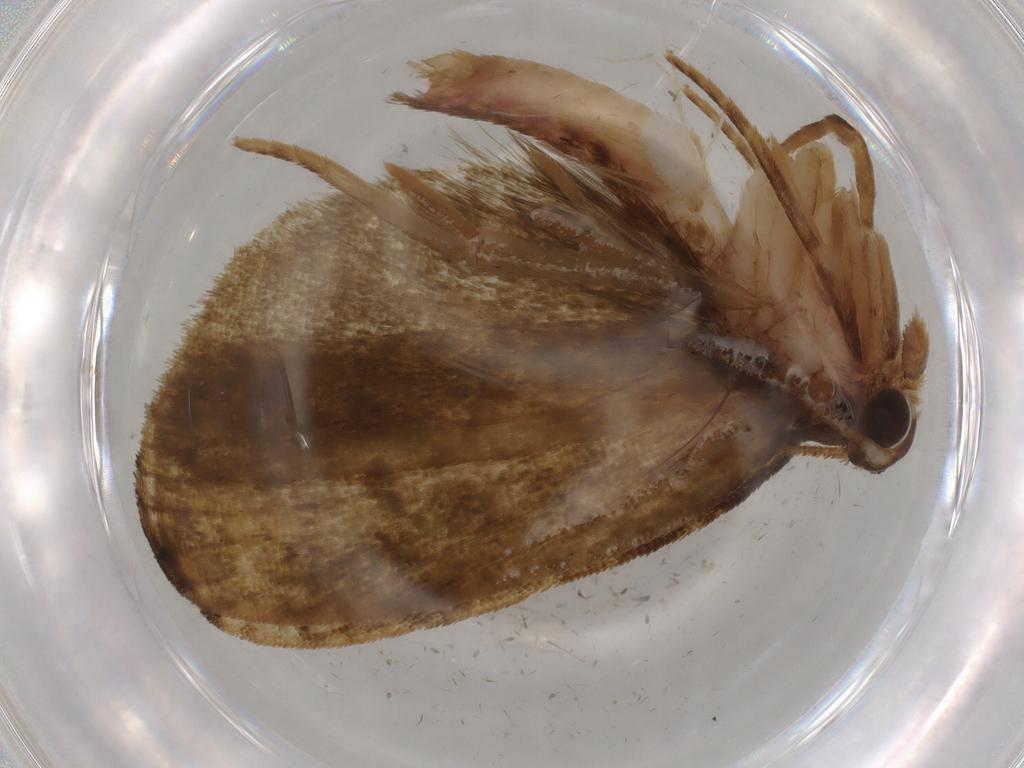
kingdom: Animalia
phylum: Arthropoda
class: Insecta
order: Lepidoptera
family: Geometridae
